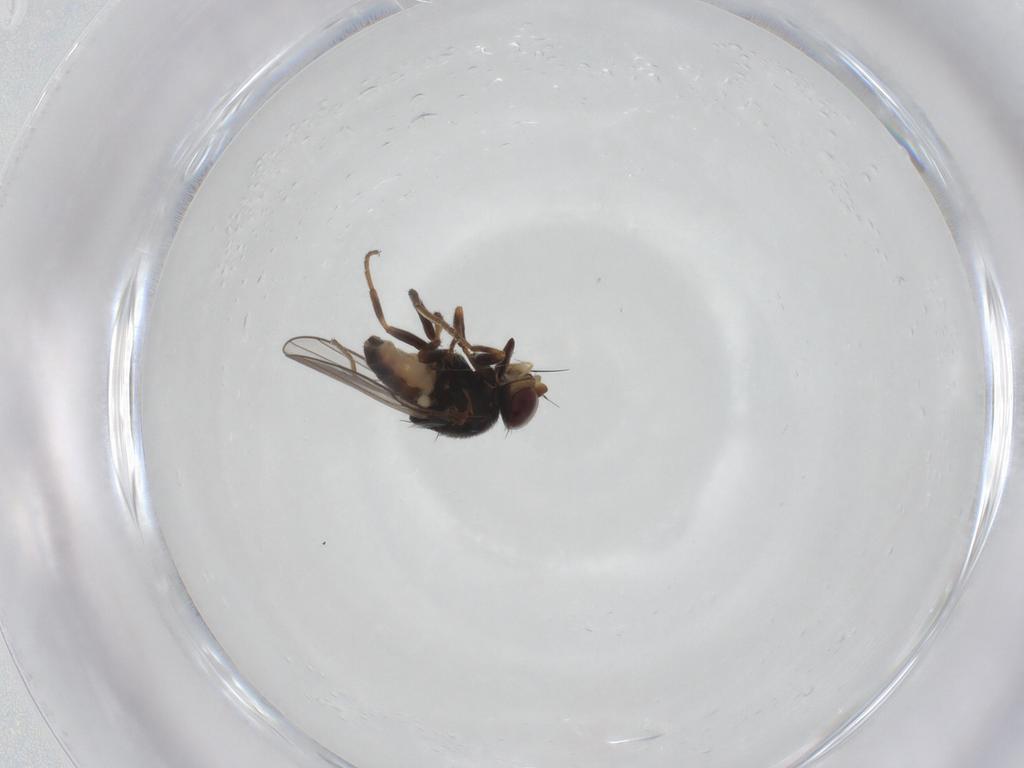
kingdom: Animalia
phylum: Arthropoda
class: Insecta
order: Diptera
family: Chloropidae
